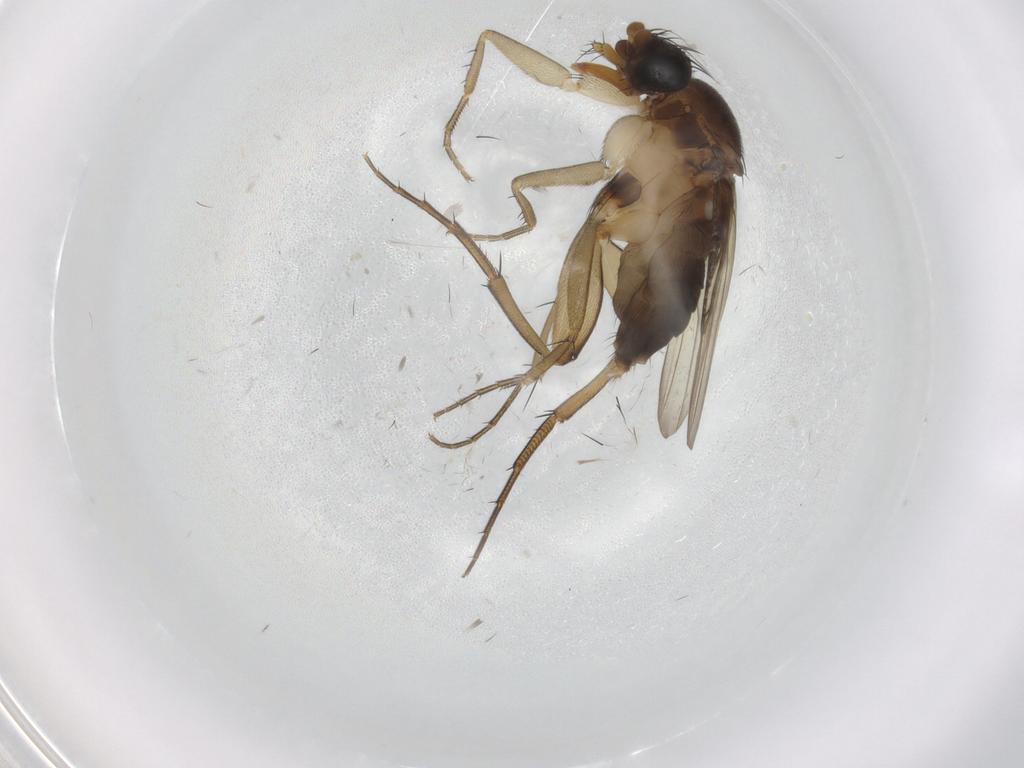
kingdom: Animalia
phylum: Arthropoda
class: Insecta
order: Diptera
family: Phoridae
